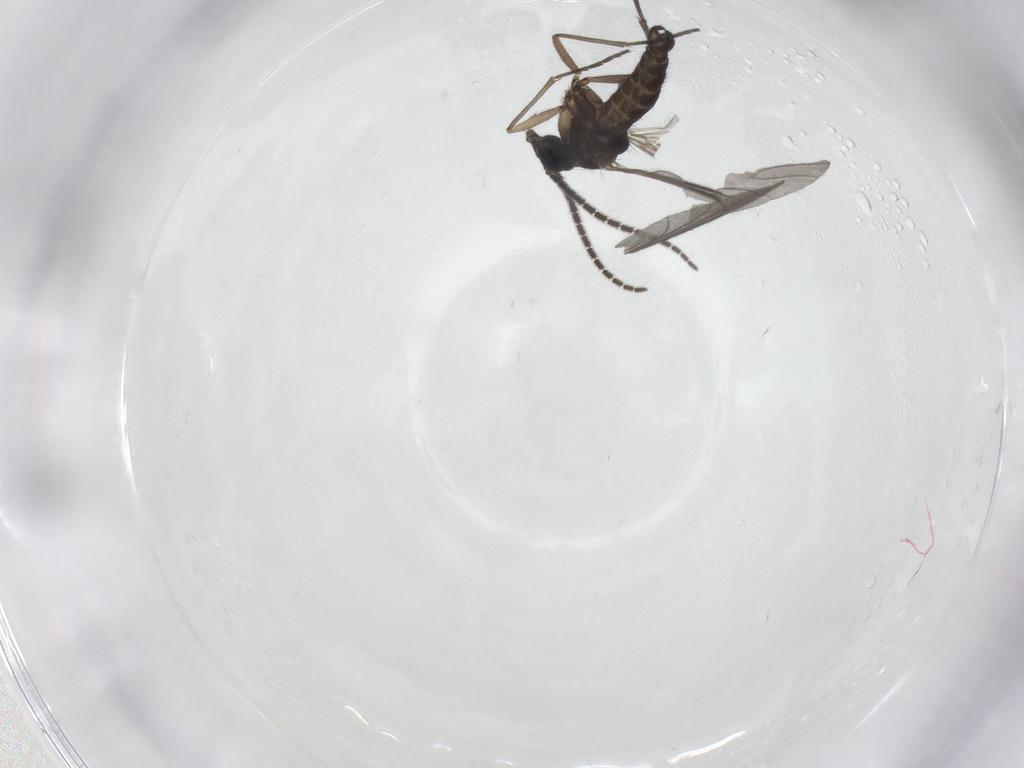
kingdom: Animalia
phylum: Arthropoda
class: Insecta
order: Diptera
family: Sciaridae
